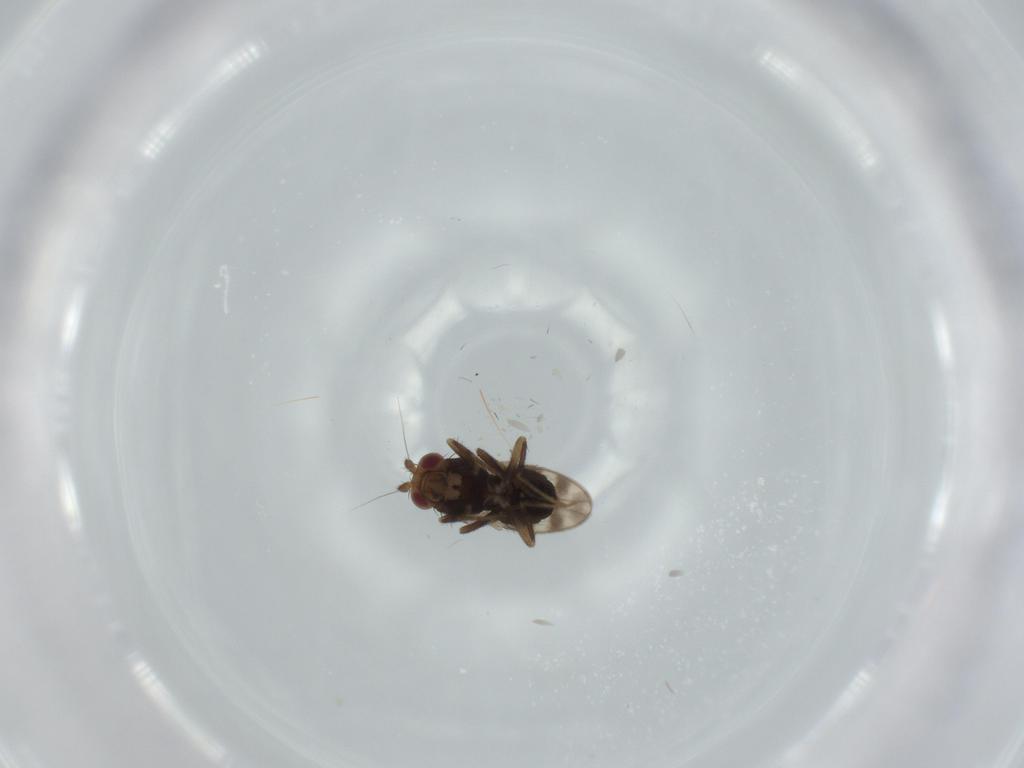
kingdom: Animalia
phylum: Arthropoda
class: Insecta
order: Diptera
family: Sphaeroceridae
